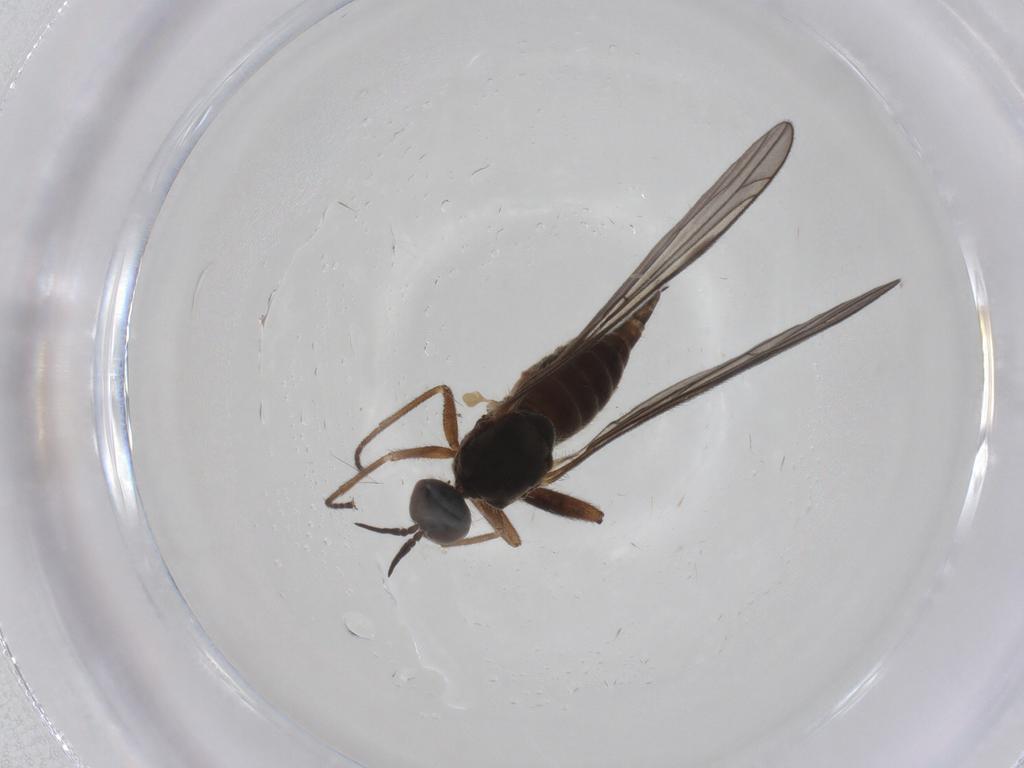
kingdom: Animalia
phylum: Arthropoda
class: Insecta
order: Diptera
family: Empididae
